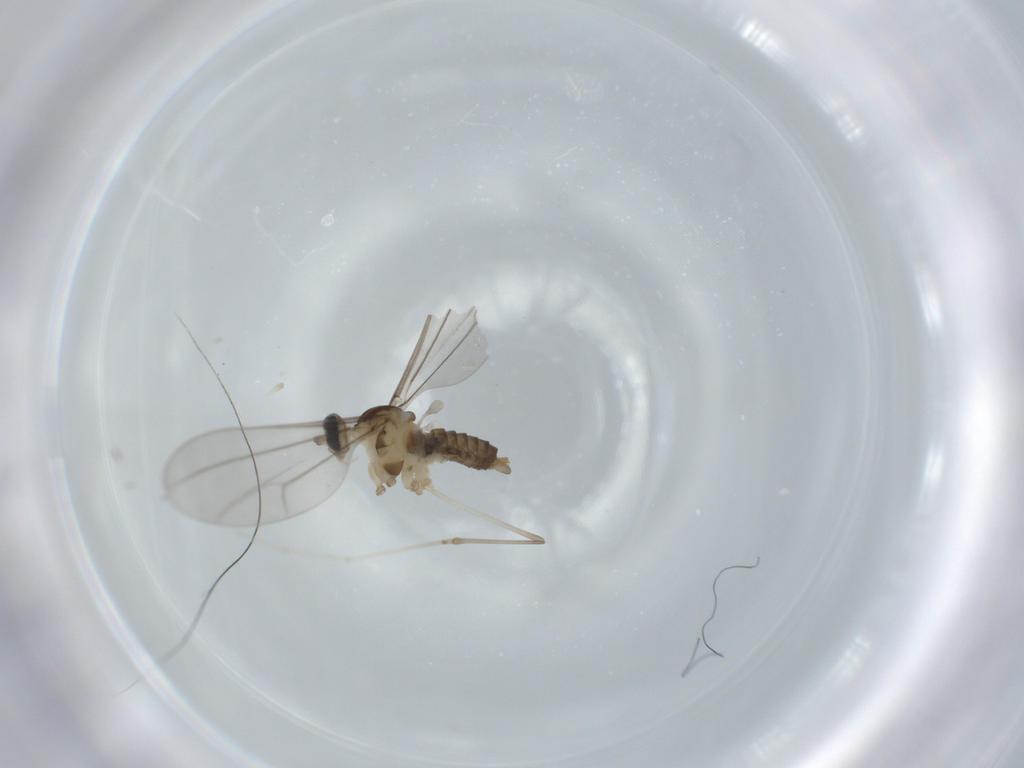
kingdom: Animalia
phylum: Arthropoda
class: Insecta
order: Diptera
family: Cecidomyiidae
